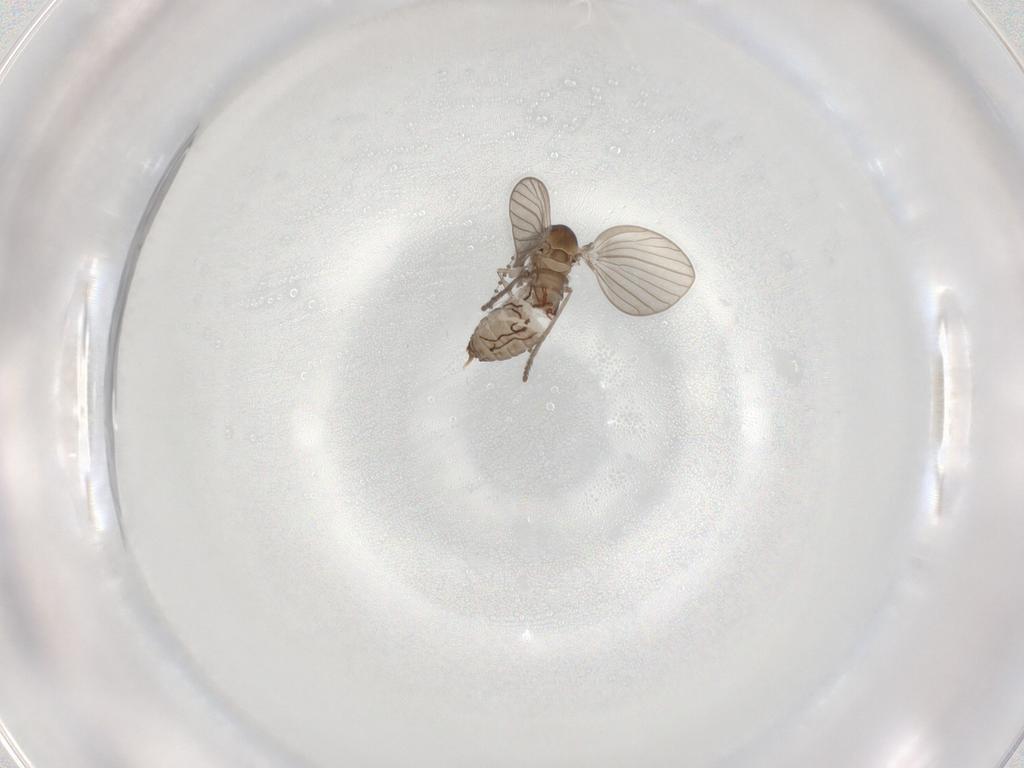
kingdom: Animalia
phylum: Arthropoda
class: Insecta
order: Diptera
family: Psychodidae
